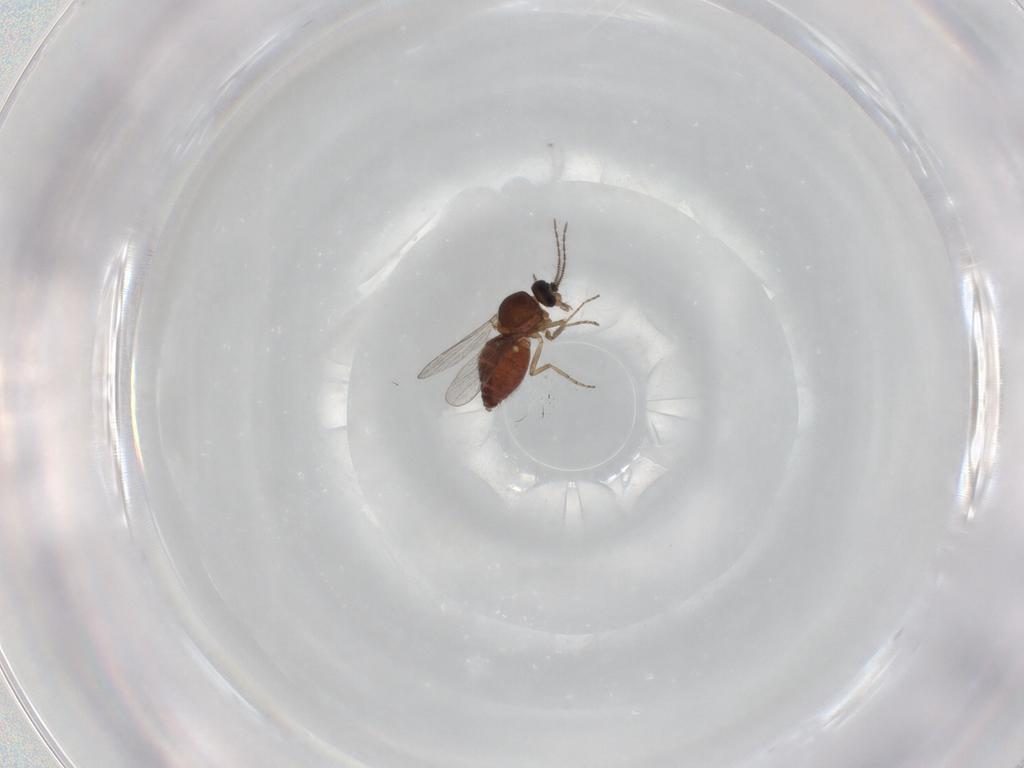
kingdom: Animalia
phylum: Arthropoda
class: Insecta
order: Diptera
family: Ceratopogonidae
